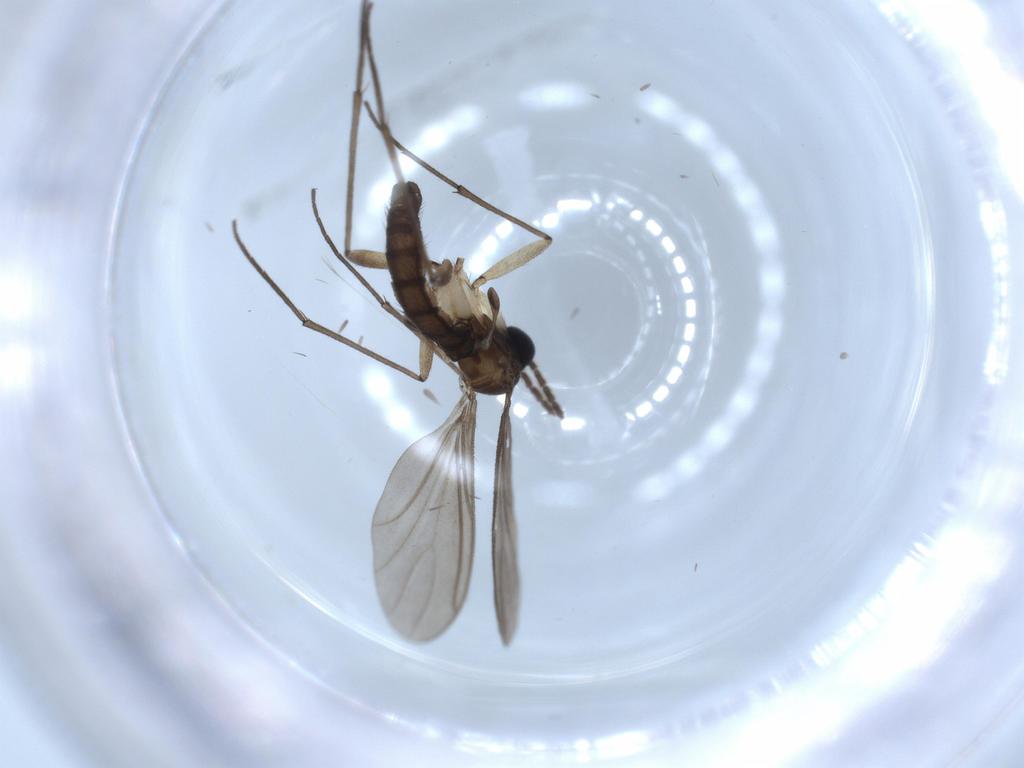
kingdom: Animalia
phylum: Arthropoda
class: Insecta
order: Diptera
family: Sciaridae
